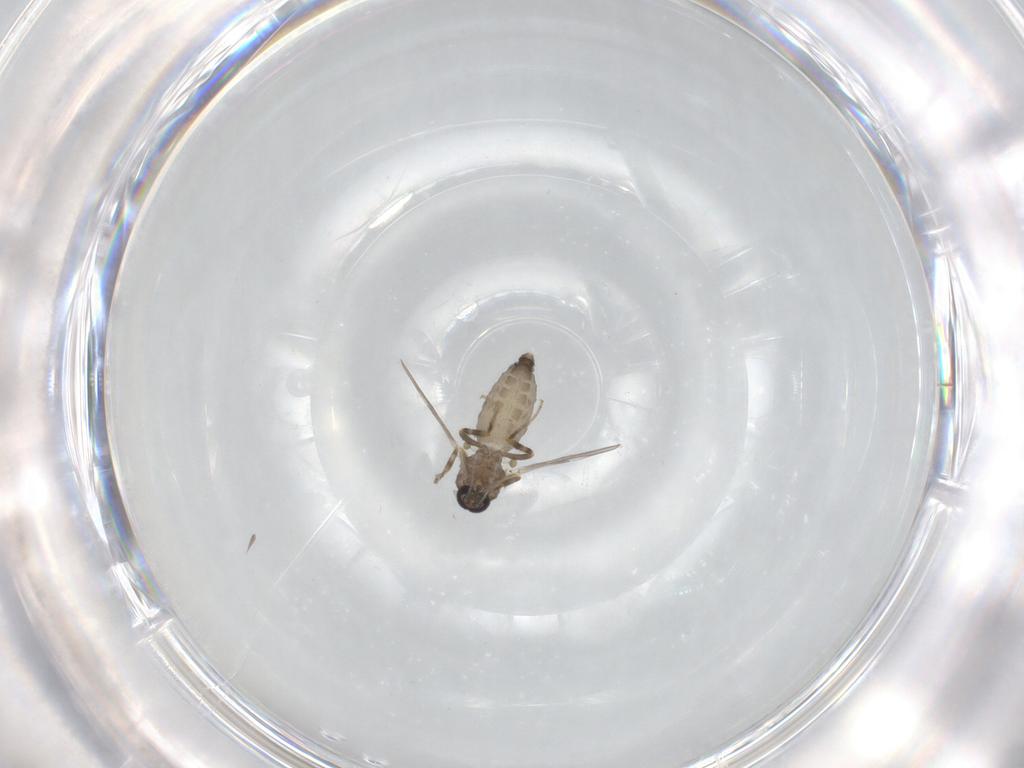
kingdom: Animalia
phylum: Arthropoda
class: Insecta
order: Diptera
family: Ceratopogonidae
